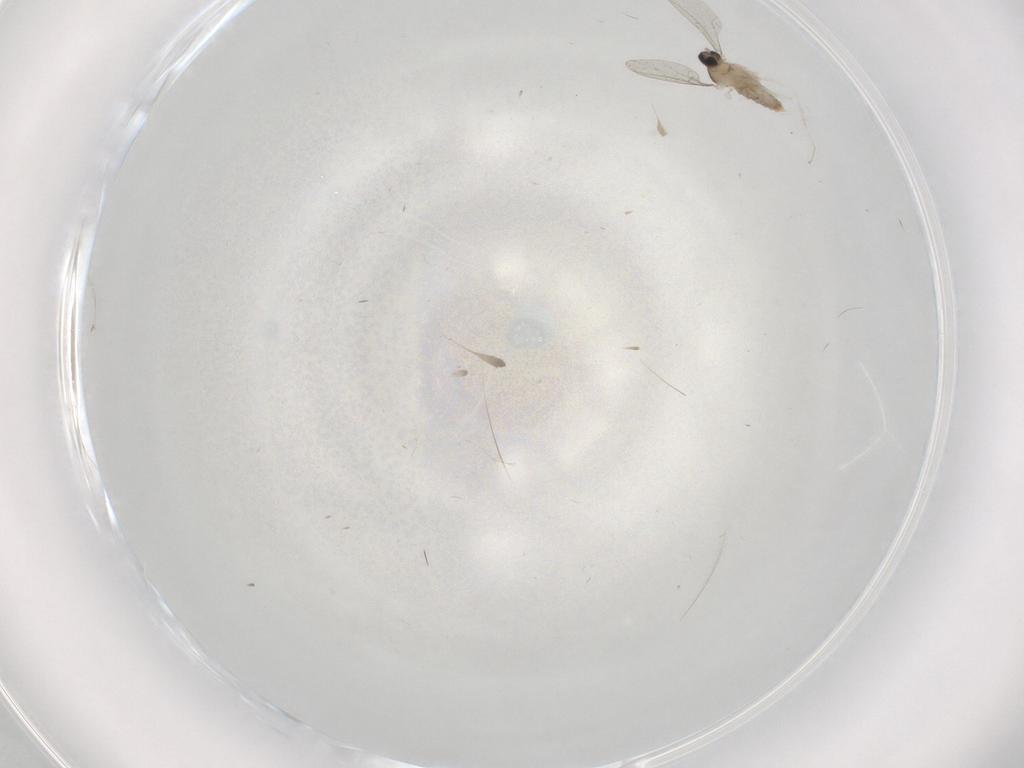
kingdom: Animalia
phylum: Arthropoda
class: Insecta
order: Diptera
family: Cecidomyiidae
